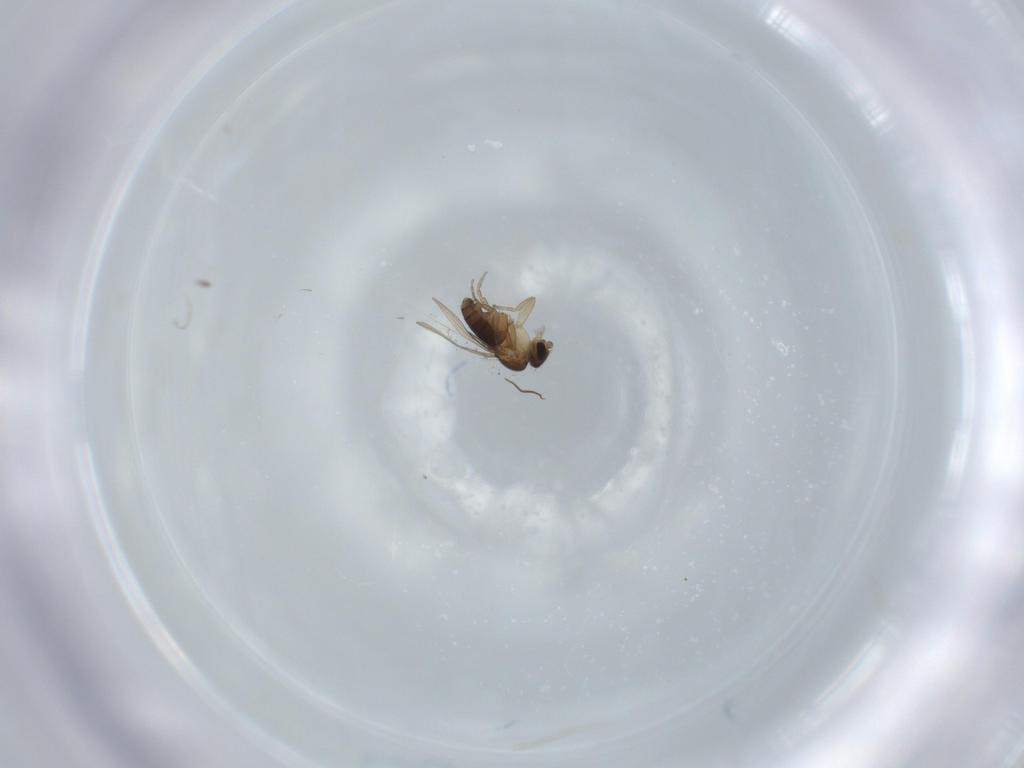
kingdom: Animalia
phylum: Arthropoda
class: Insecta
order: Diptera
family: Phoridae
